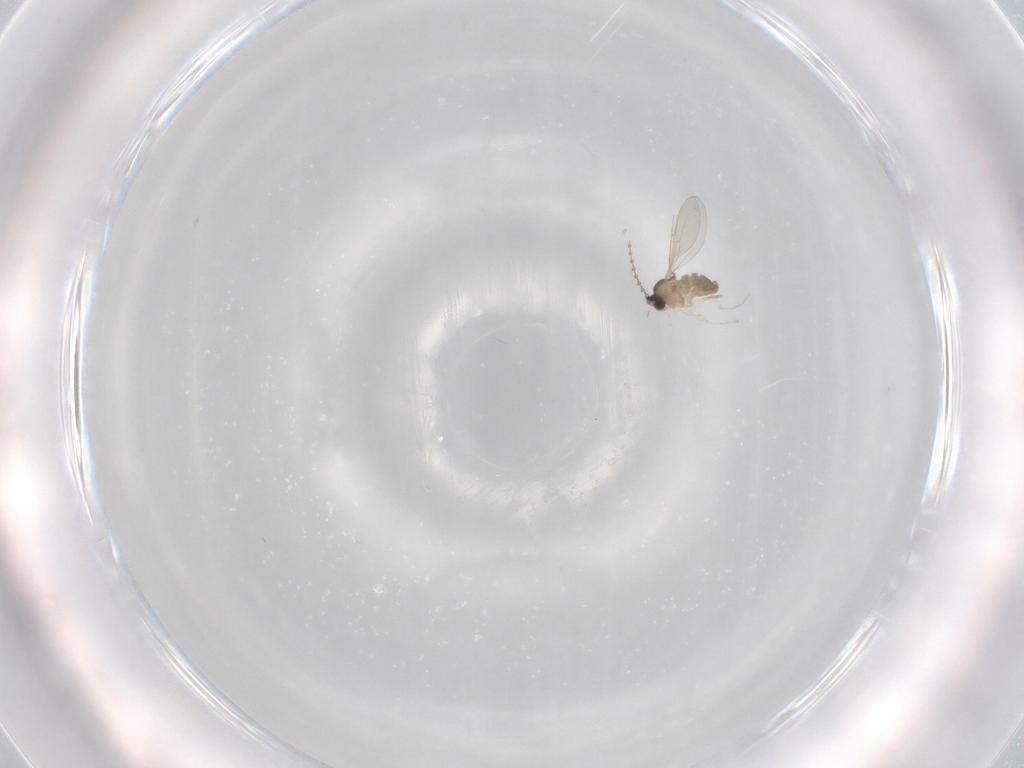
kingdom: Animalia
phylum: Arthropoda
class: Insecta
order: Diptera
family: Cecidomyiidae
